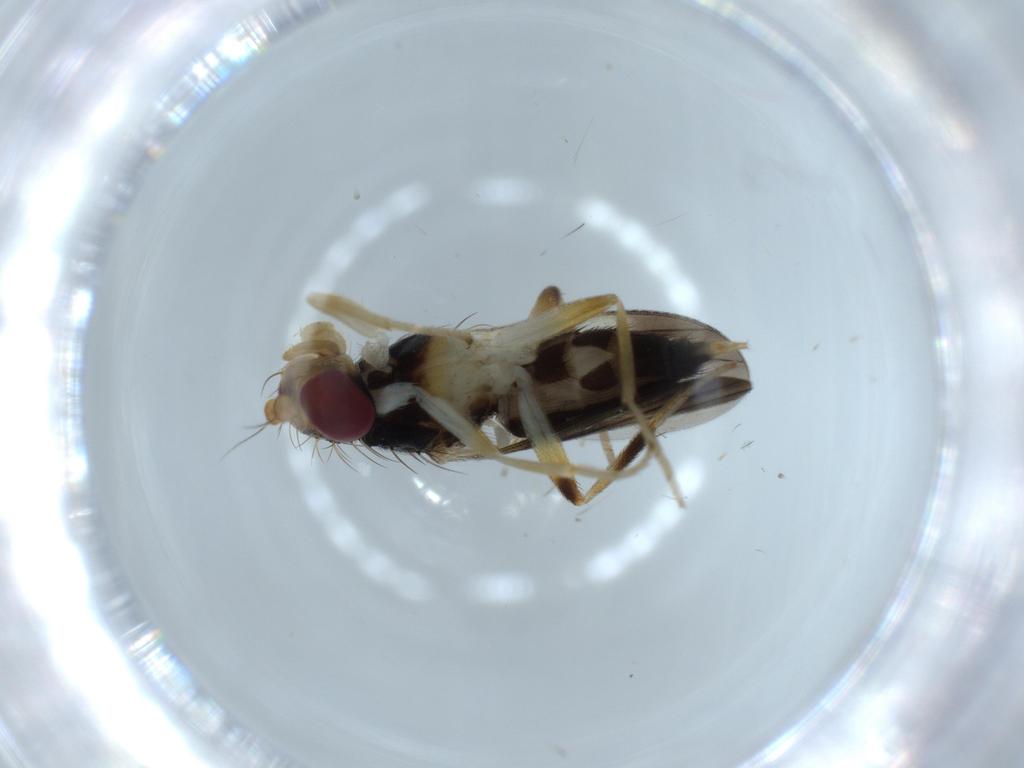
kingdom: Animalia
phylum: Arthropoda
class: Insecta
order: Diptera
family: Clusiidae
